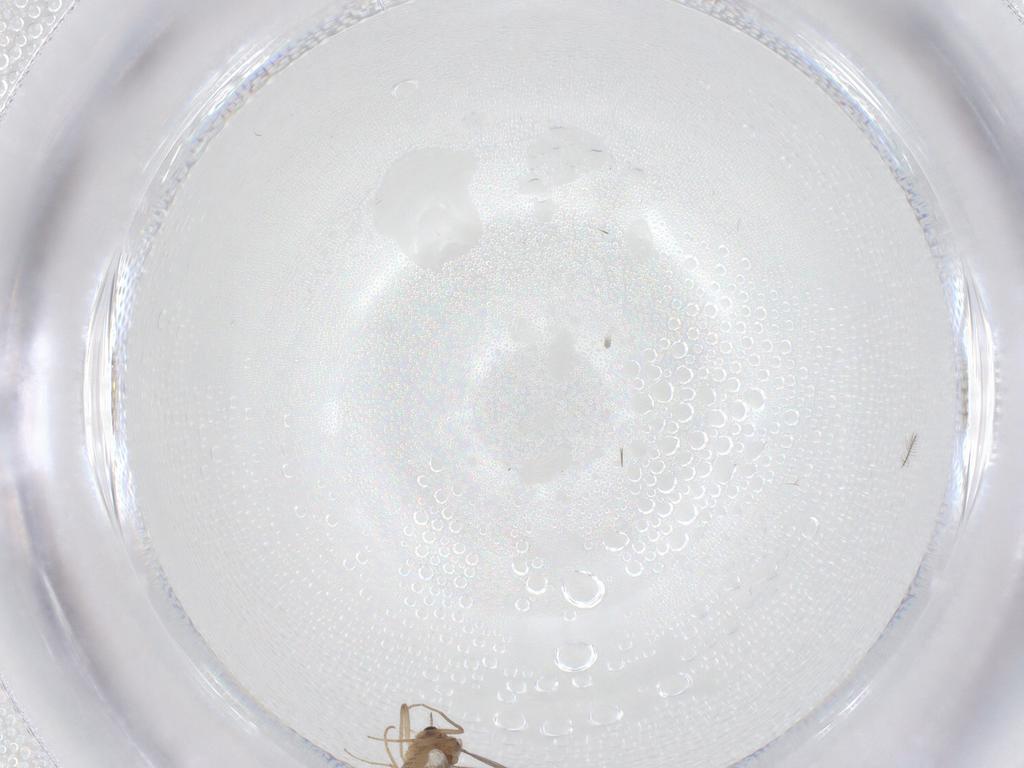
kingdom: Animalia
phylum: Arthropoda
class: Insecta
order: Diptera
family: Chironomidae
